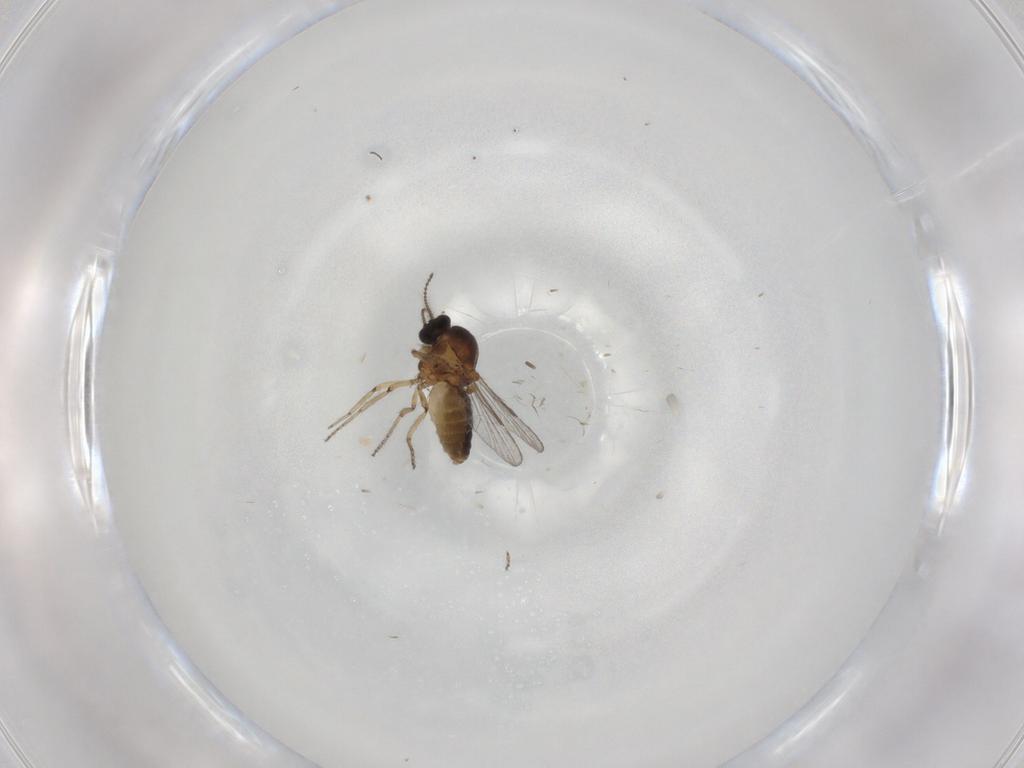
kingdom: Animalia
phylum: Arthropoda
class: Insecta
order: Diptera
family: Ceratopogonidae
